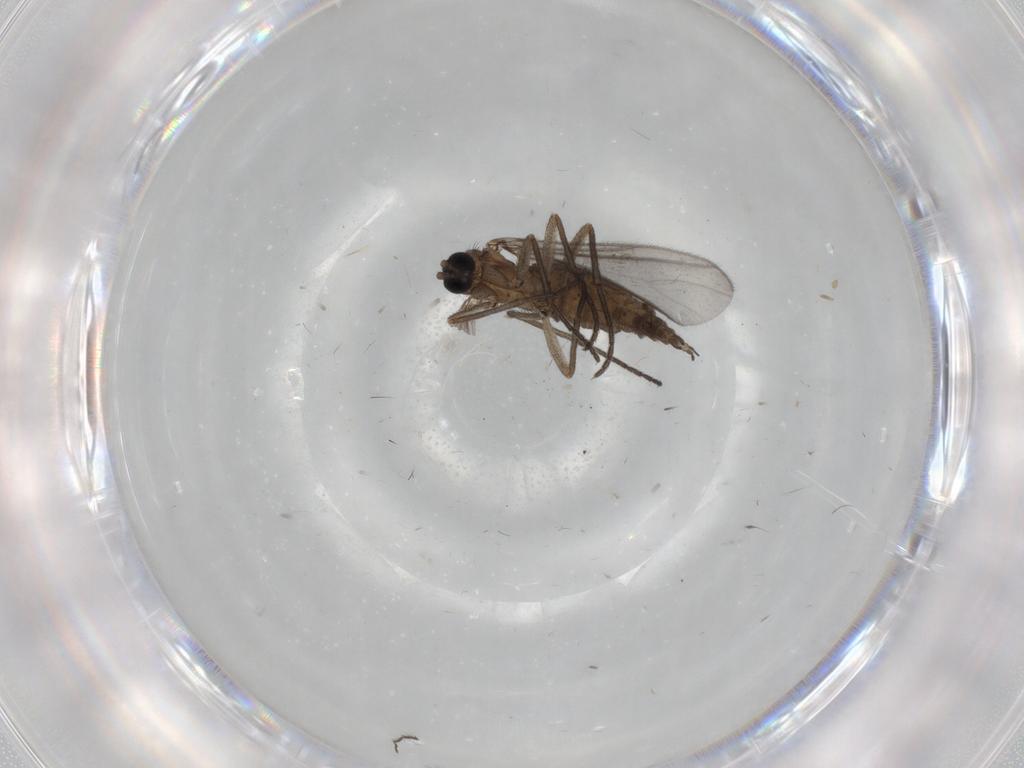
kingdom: Animalia
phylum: Arthropoda
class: Insecta
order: Diptera
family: Sciaridae
